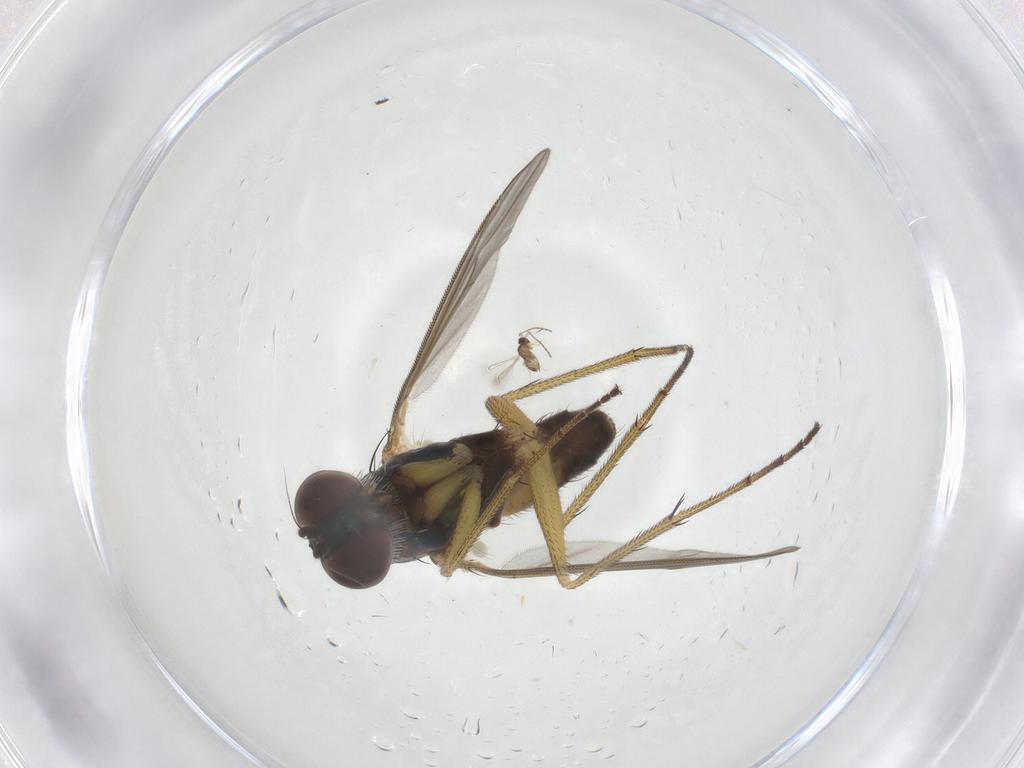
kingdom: Animalia
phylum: Arthropoda
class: Insecta
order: Diptera
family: Dolichopodidae
